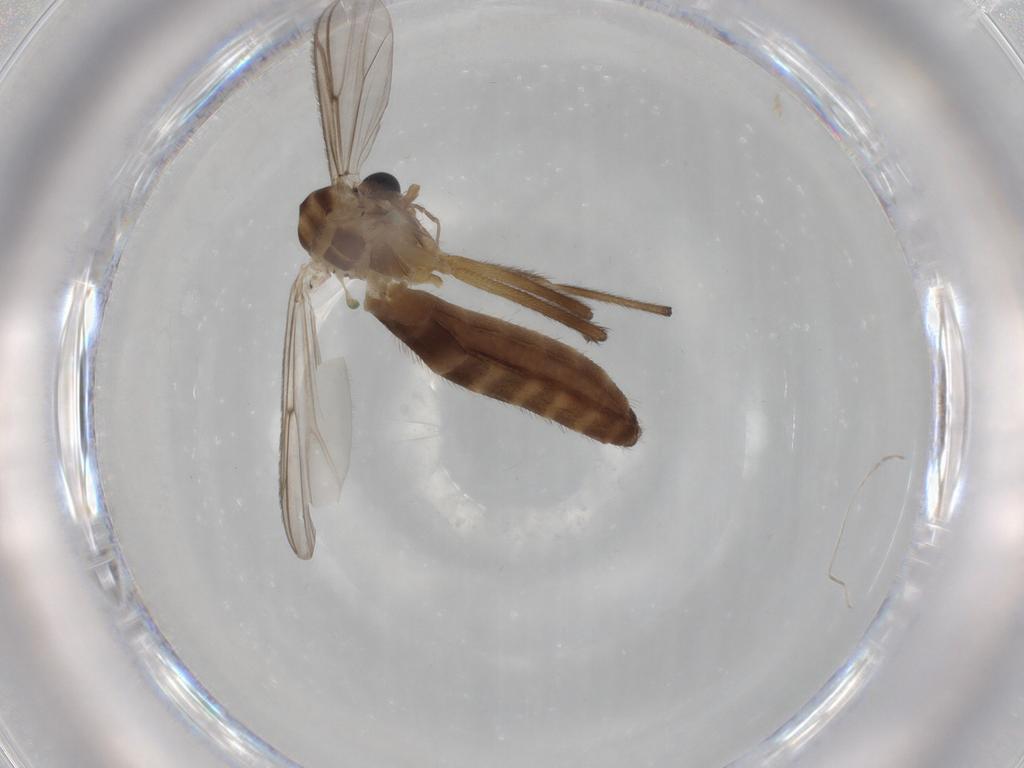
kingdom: Animalia
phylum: Arthropoda
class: Insecta
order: Diptera
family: Chironomidae
